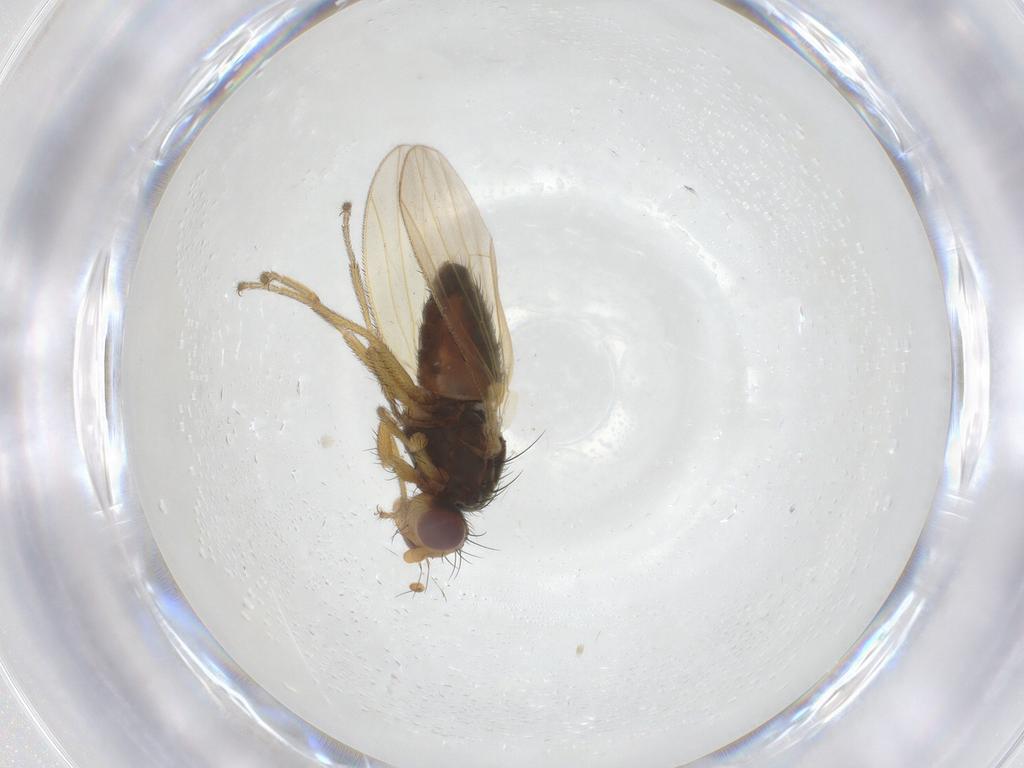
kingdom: Animalia
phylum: Arthropoda
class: Insecta
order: Diptera
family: Heleomyzidae
